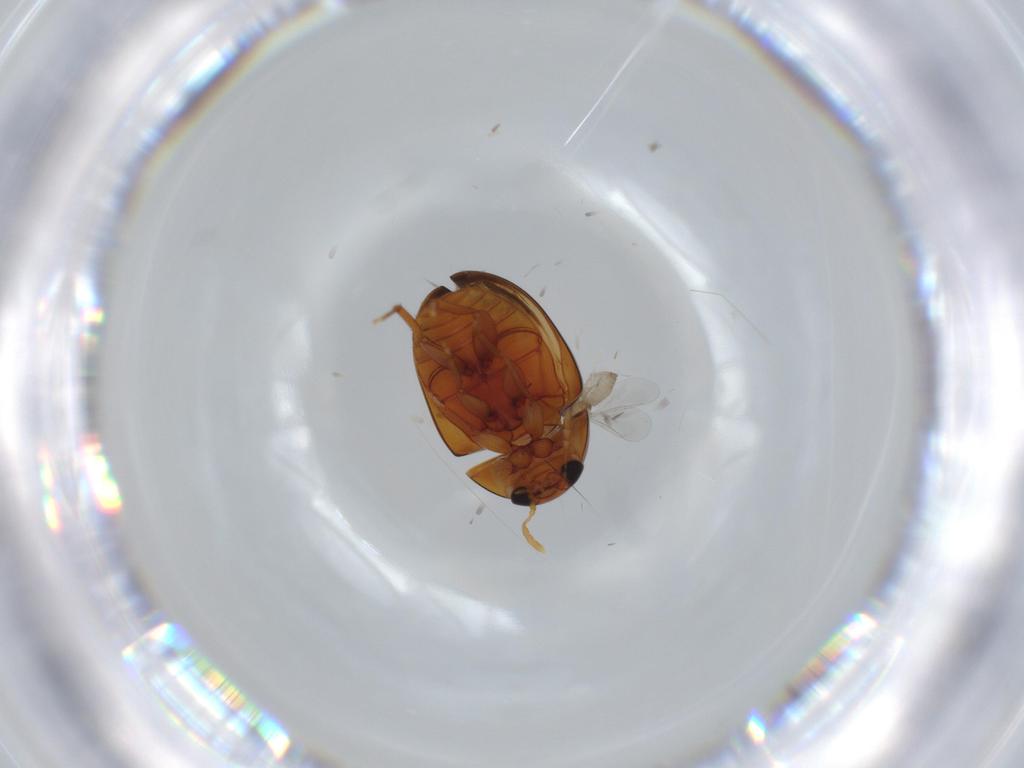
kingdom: Animalia
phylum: Arthropoda
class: Insecta
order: Coleoptera
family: Phalacridae
